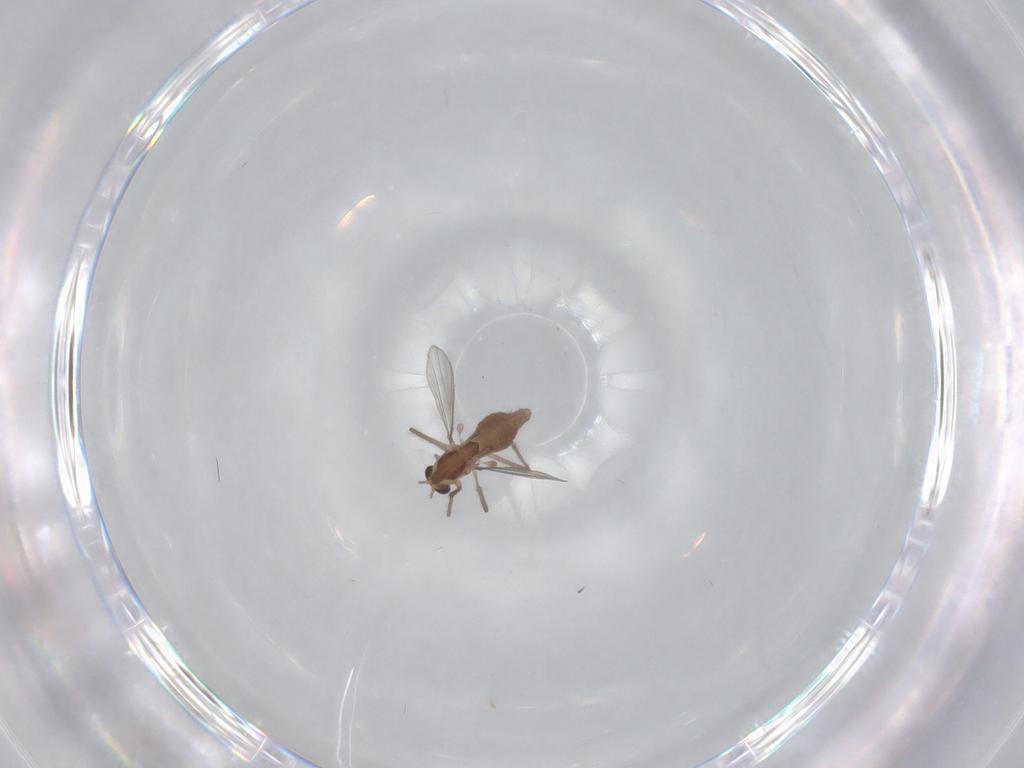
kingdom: Animalia
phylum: Arthropoda
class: Insecta
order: Diptera
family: Chironomidae
